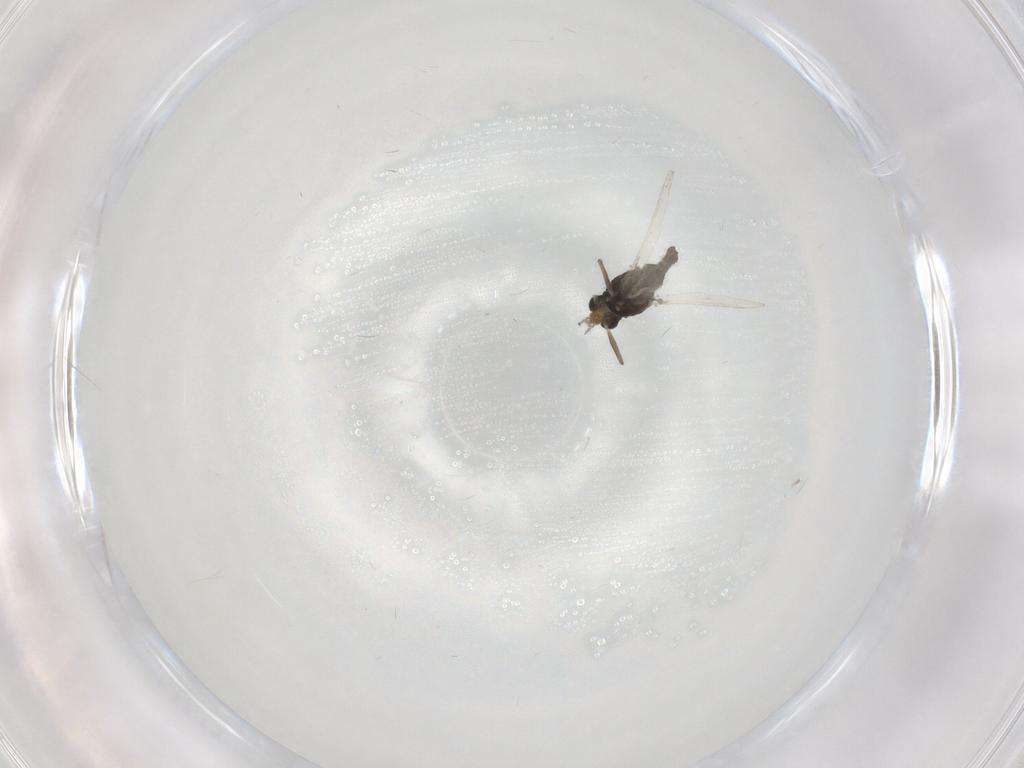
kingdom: Animalia
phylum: Arthropoda
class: Insecta
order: Diptera
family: Chironomidae
